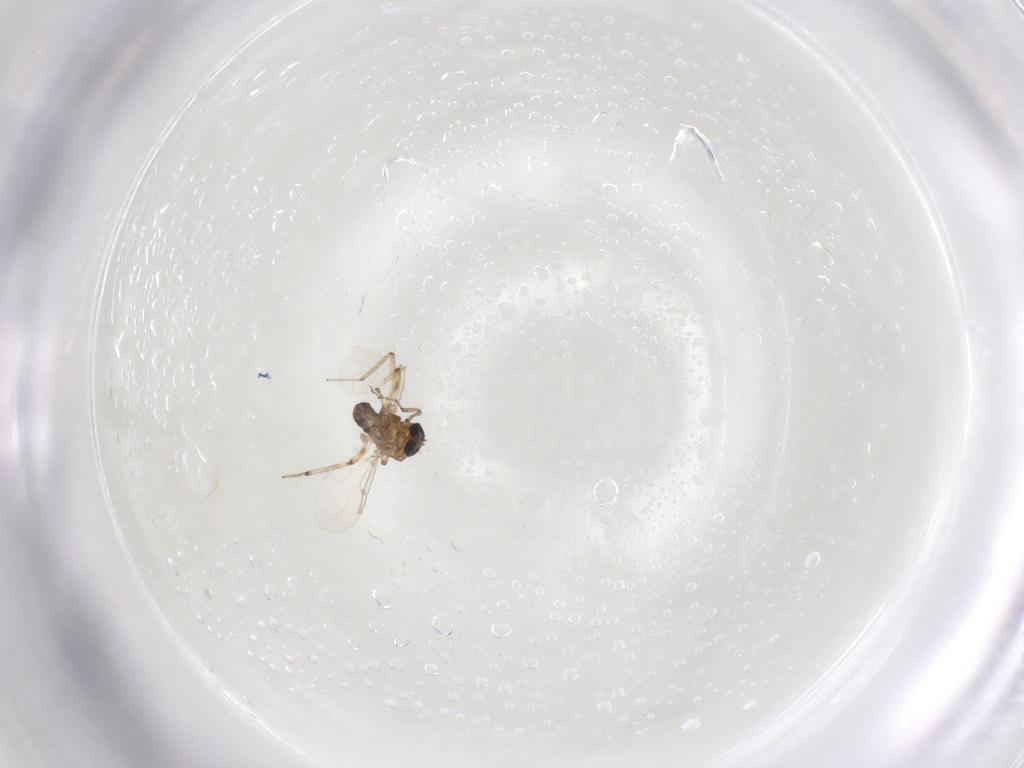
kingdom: Animalia
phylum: Arthropoda
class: Insecta
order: Diptera
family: Ceratopogonidae
